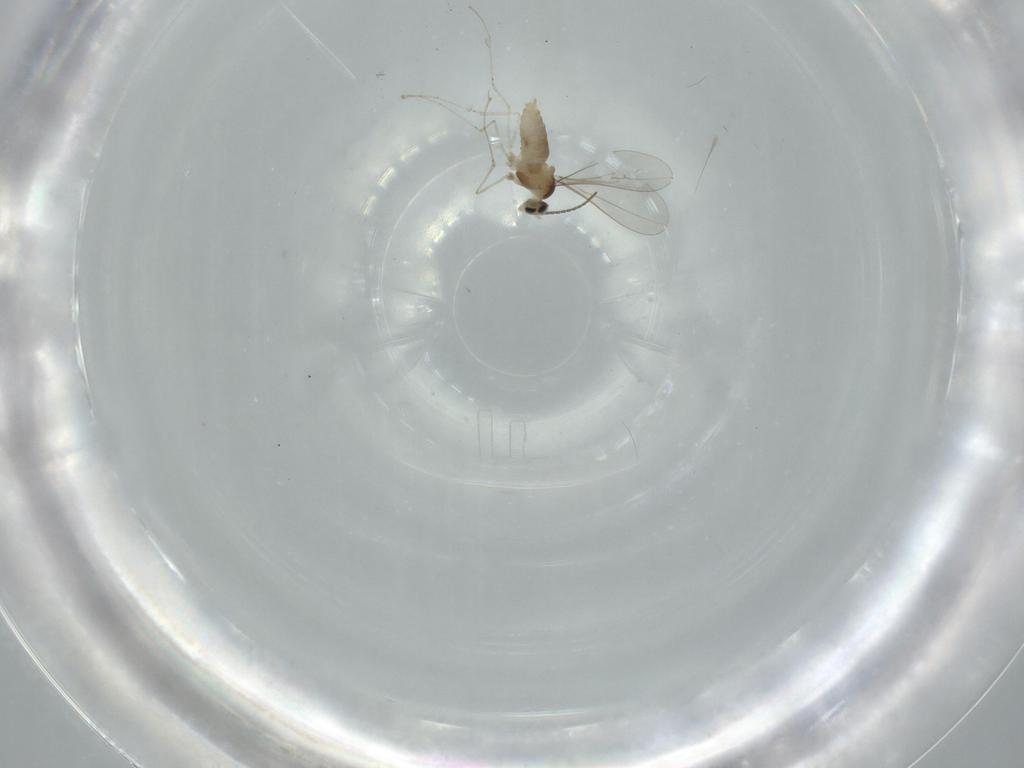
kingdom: Animalia
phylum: Arthropoda
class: Insecta
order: Diptera
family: Cecidomyiidae
